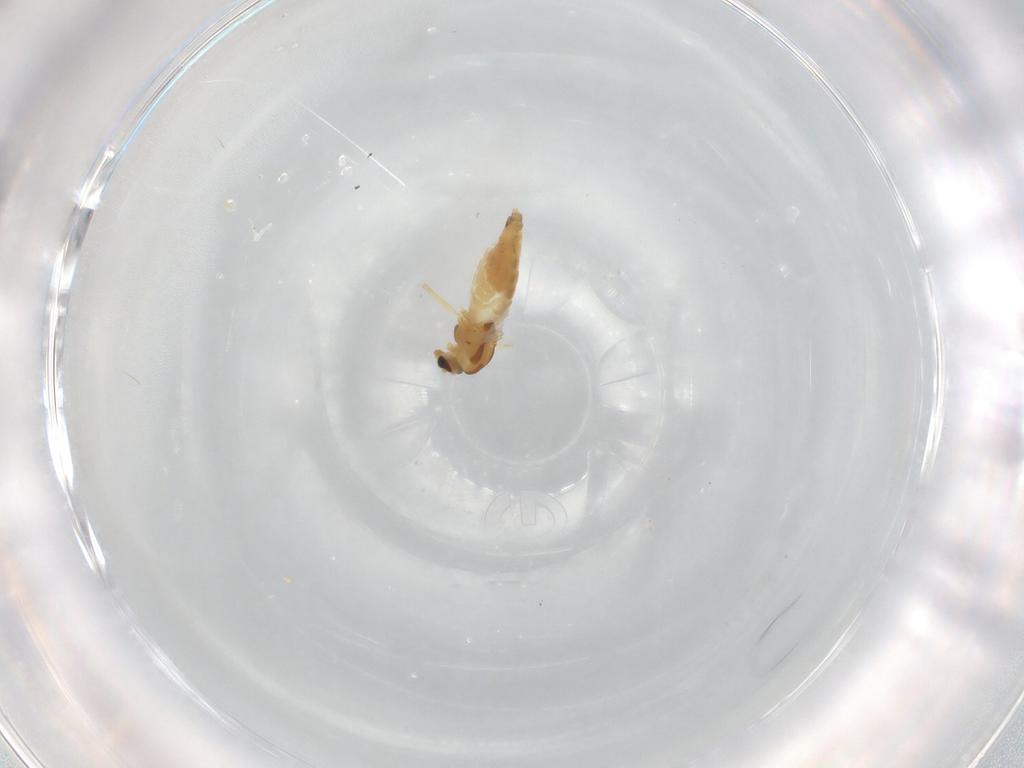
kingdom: Animalia
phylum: Arthropoda
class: Insecta
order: Diptera
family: Chironomidae
